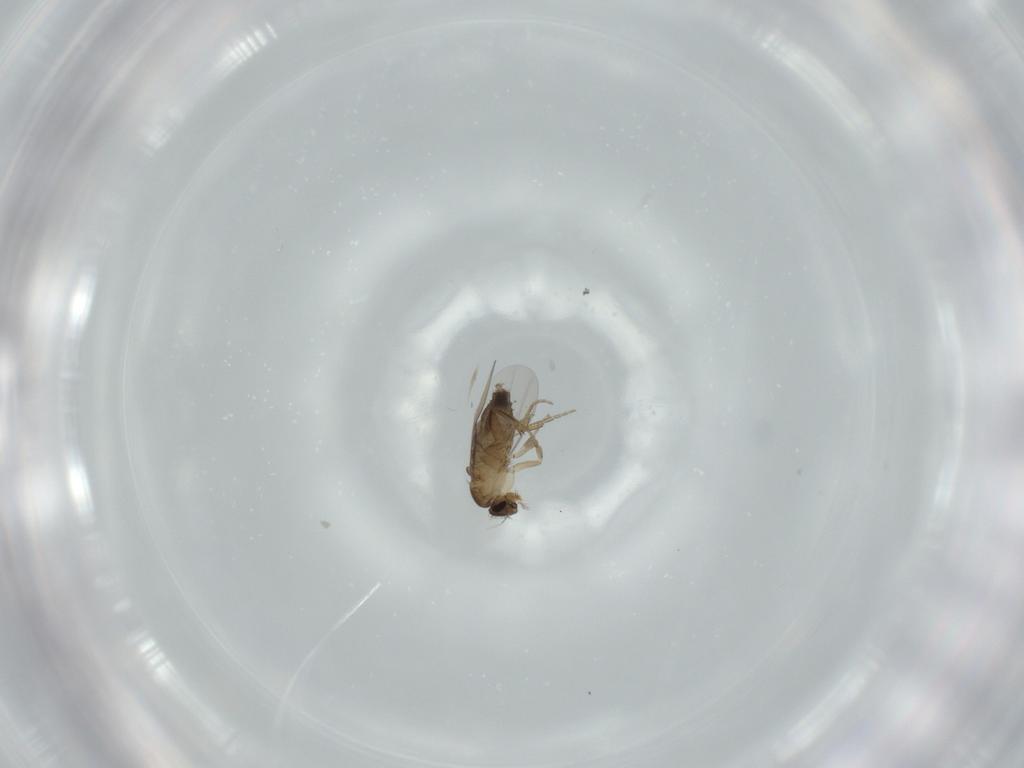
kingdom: Animalia
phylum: Arthropoda
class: Insecta
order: Diptera
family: Phoridae
